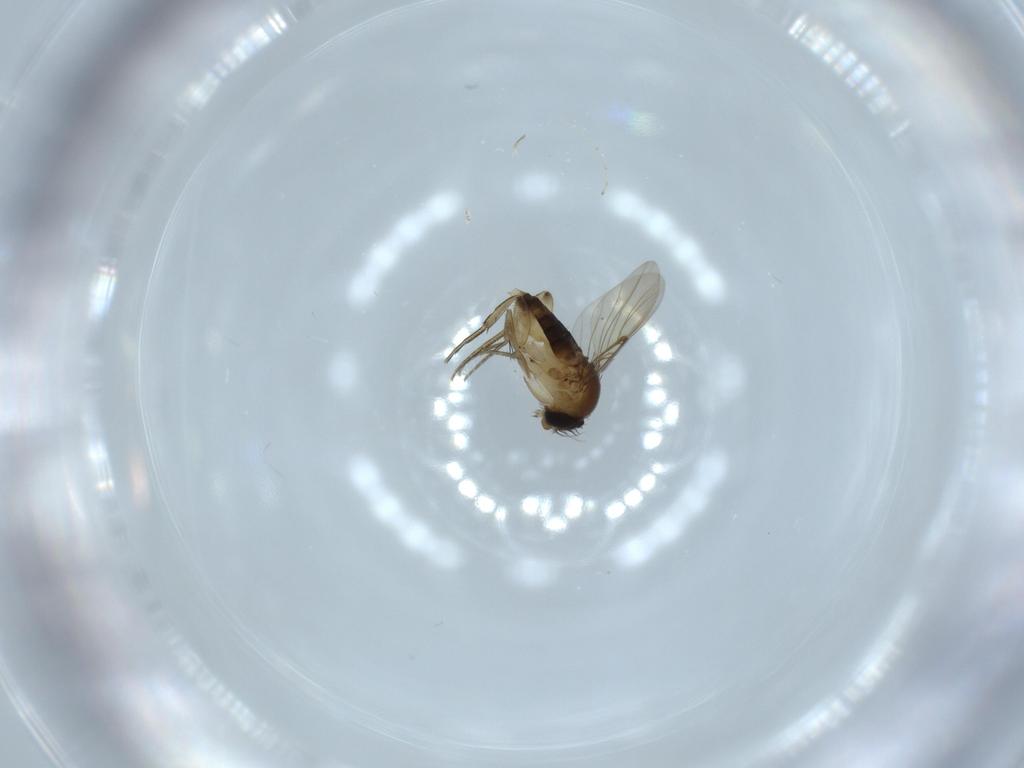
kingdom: Animalia
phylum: Arthropoda
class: Insecta
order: Diptera
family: Phoridae
